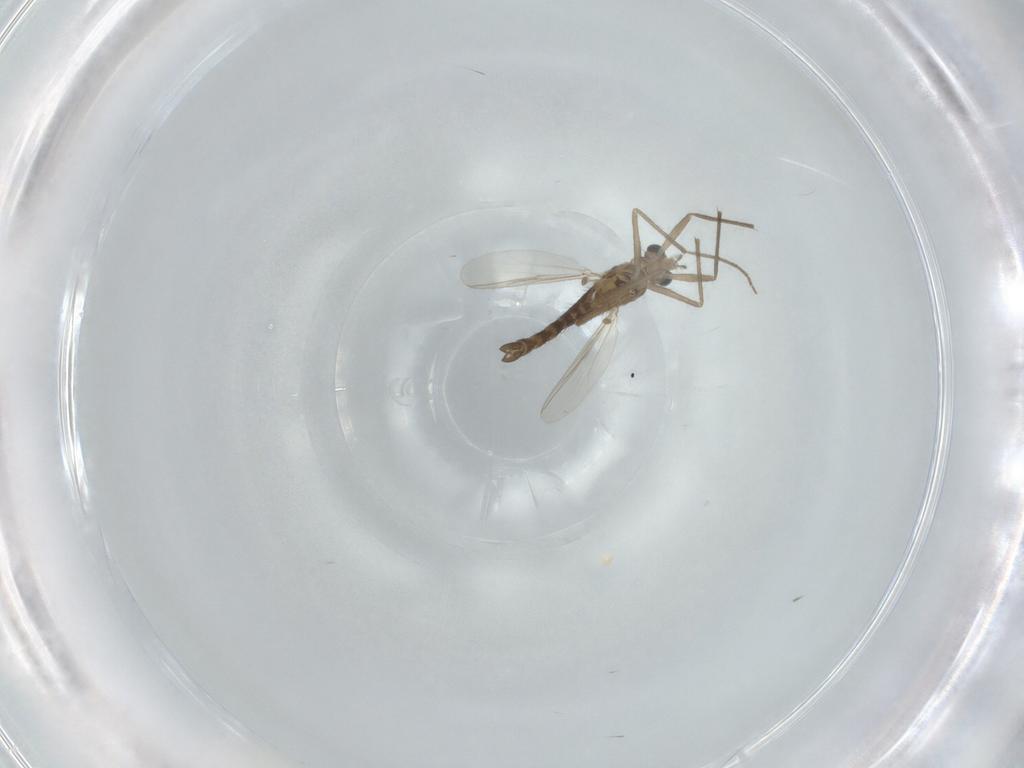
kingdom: Animalia
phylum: Arthropoda
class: Insecta
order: Diptera
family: Chironomidae
